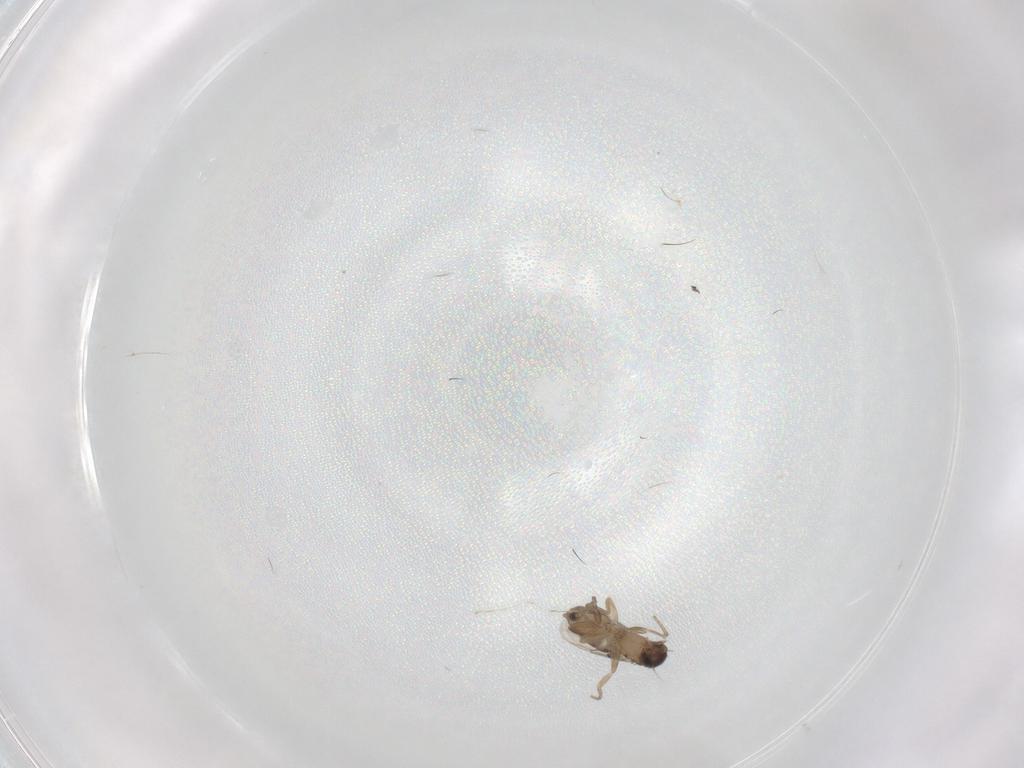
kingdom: Animalia
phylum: Arthropoda
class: Insecta
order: Diptera
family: Phoridae
